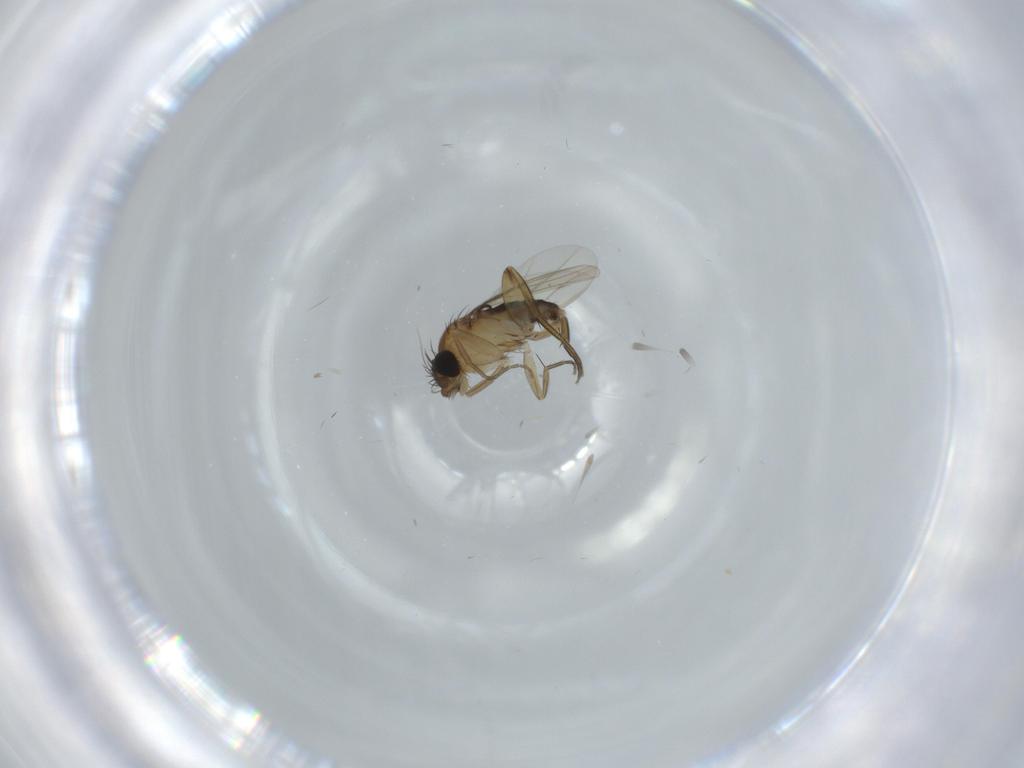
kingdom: Animalia
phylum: Arthropoda
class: Insecta
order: Diptera
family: Phoridae
